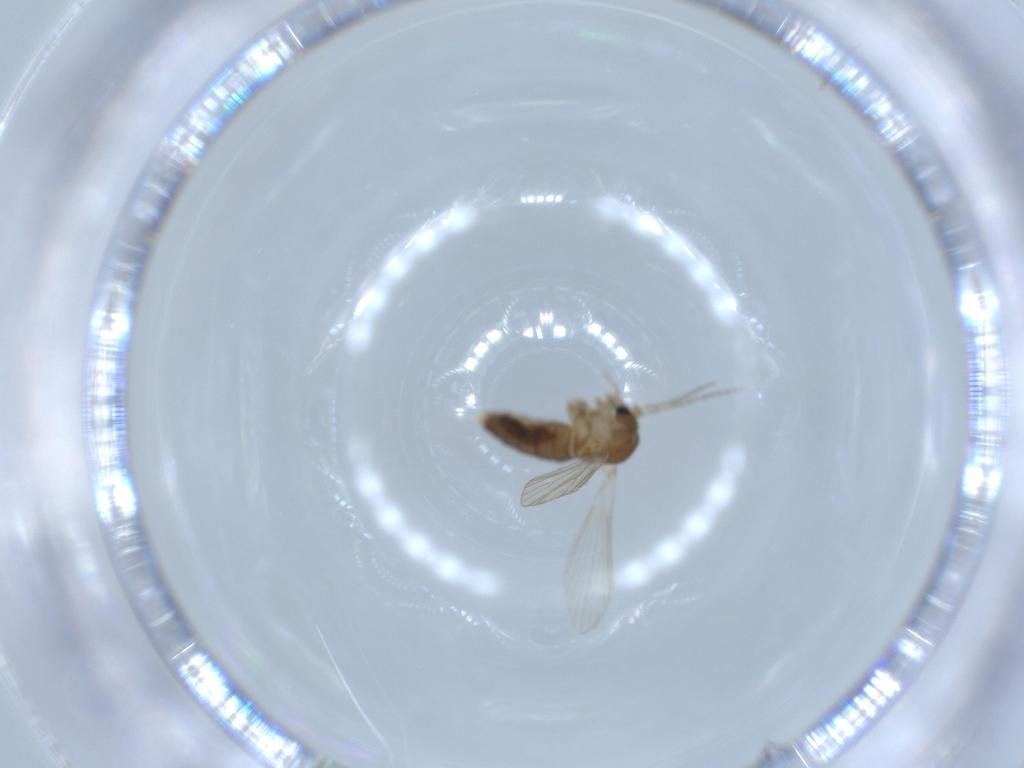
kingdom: Animalia
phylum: Arthropoda
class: Insecta
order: Diptera
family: Psychodidae
